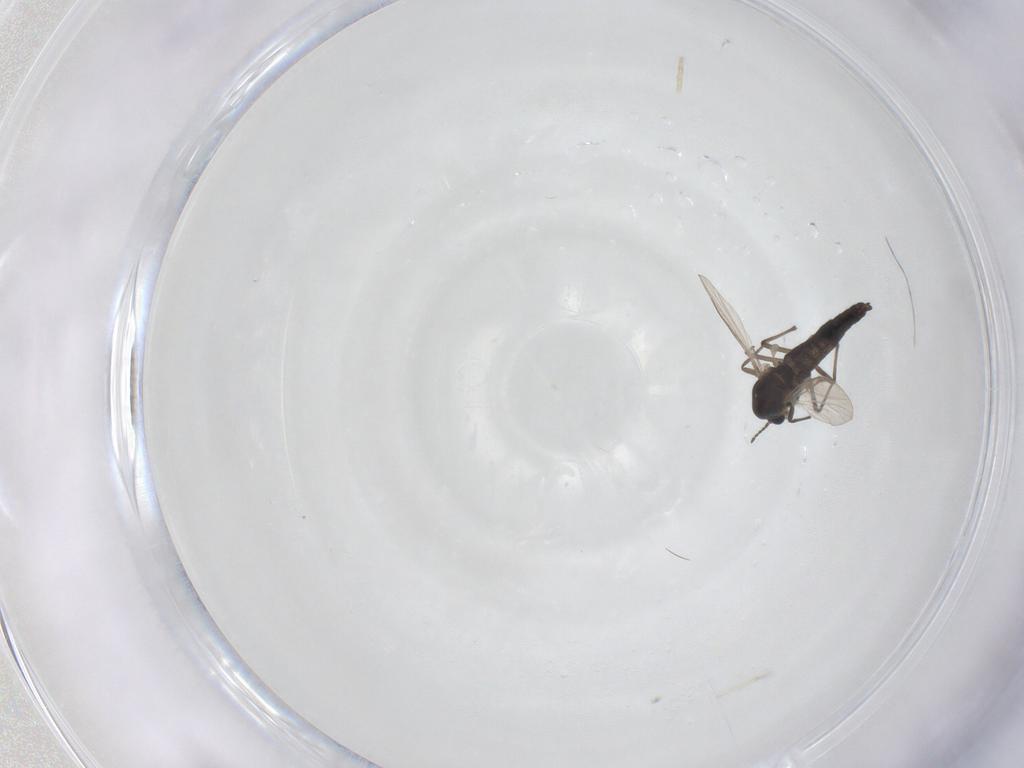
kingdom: Animalia
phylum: Arthropoda
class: Insecta
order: Diptera
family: Chironomidae
